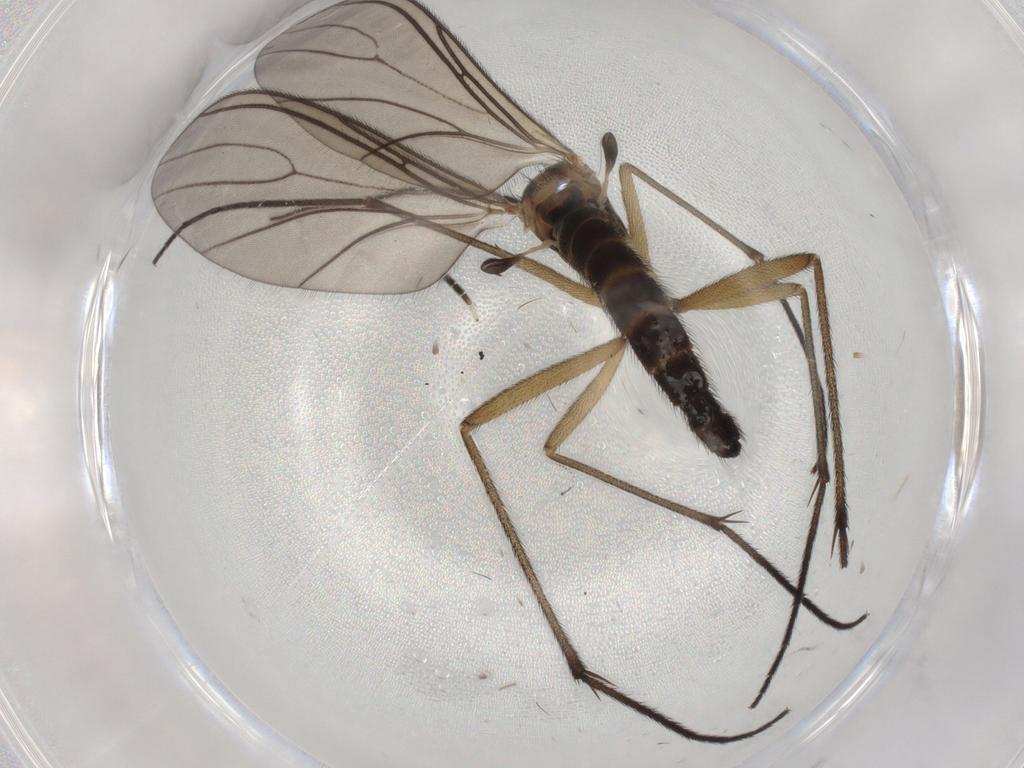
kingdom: Animalia
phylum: Arthropoda
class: Insecta
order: Diptera
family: Sciaridae
